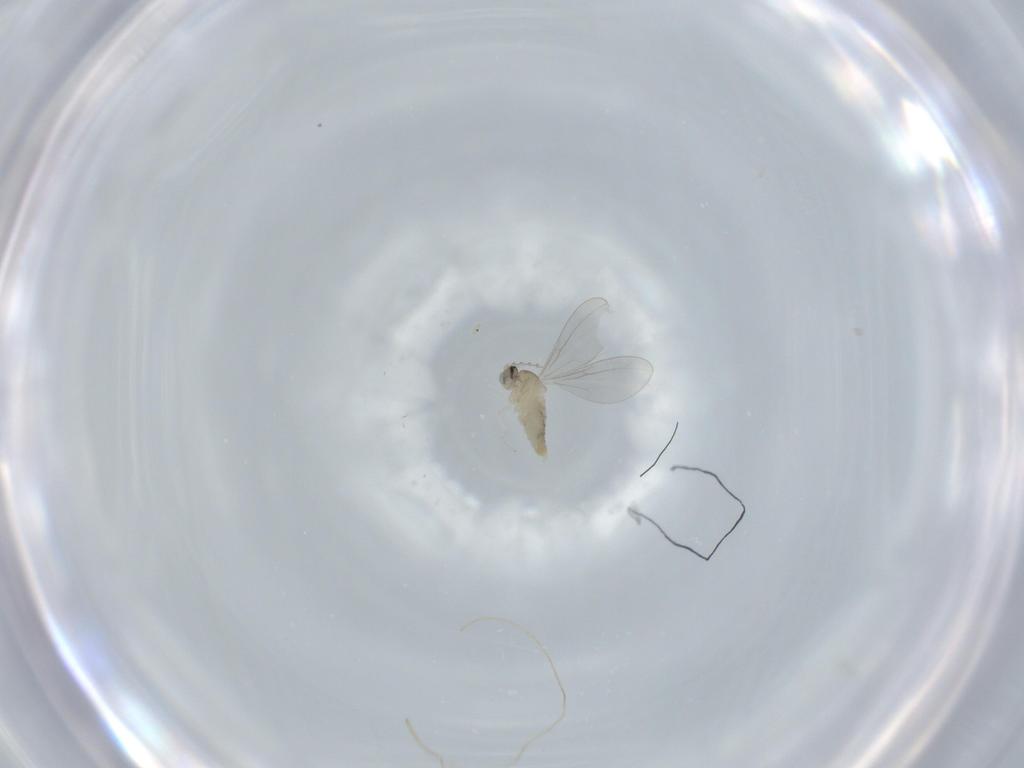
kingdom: Animalia
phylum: Arthropoda
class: Insecta
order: Diptera
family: Cecidomyiidae
